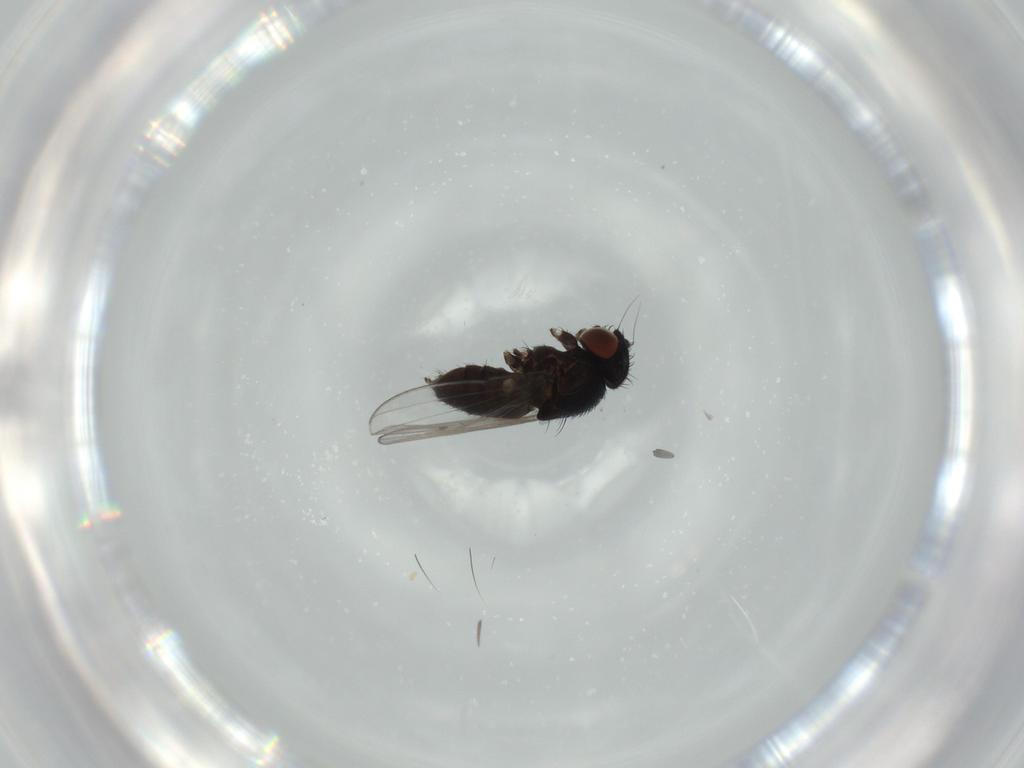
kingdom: Animalia
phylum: Arthropoda
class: Insecta
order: Diptera
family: Milichiidae
